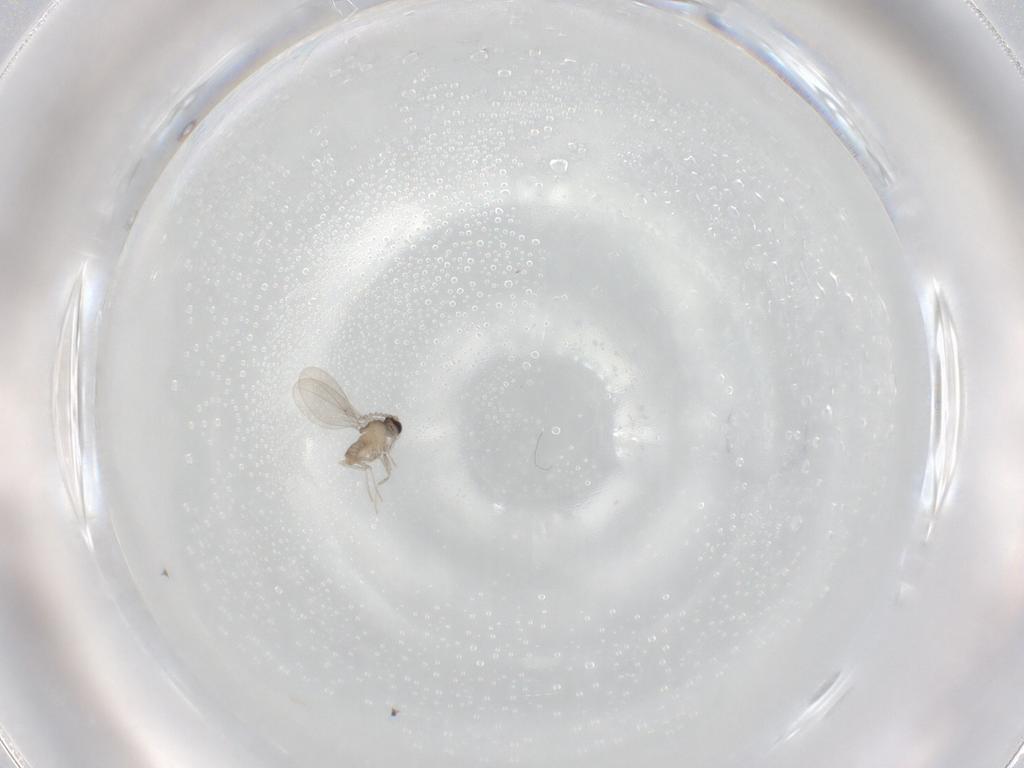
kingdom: Animalia
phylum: Arthropoda
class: Insecta
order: Diptera
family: Cecidomyiidae
